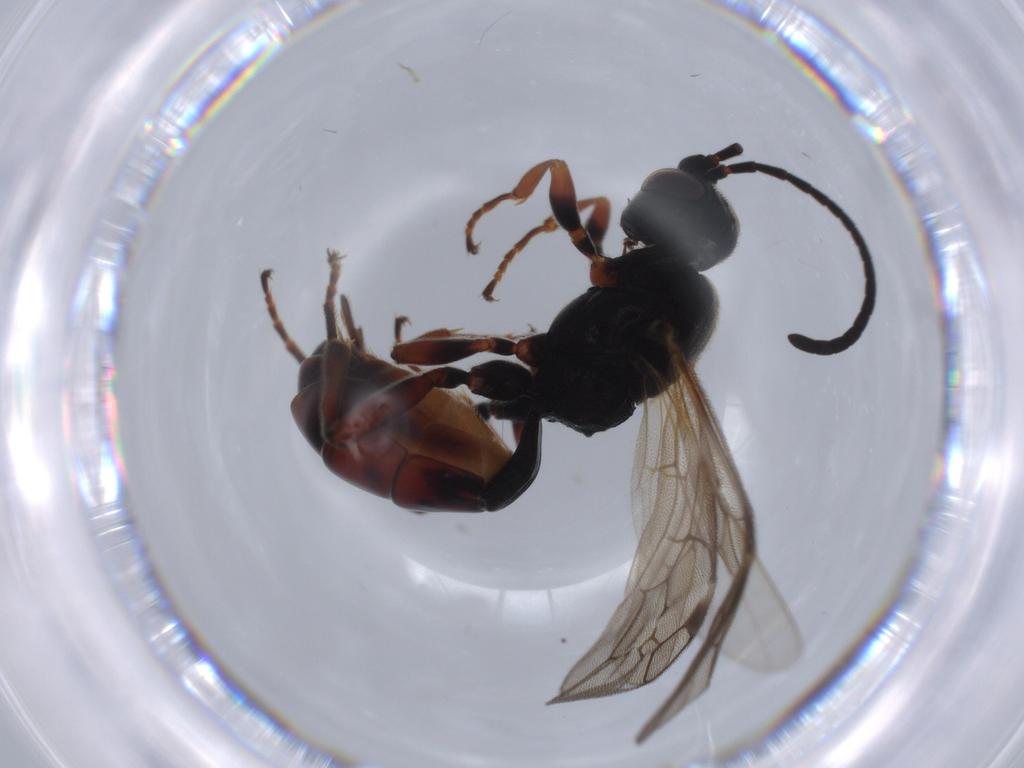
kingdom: Animalia
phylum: Arthropoda
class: Insecta
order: Hymenoptera
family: Ichneumonidae
